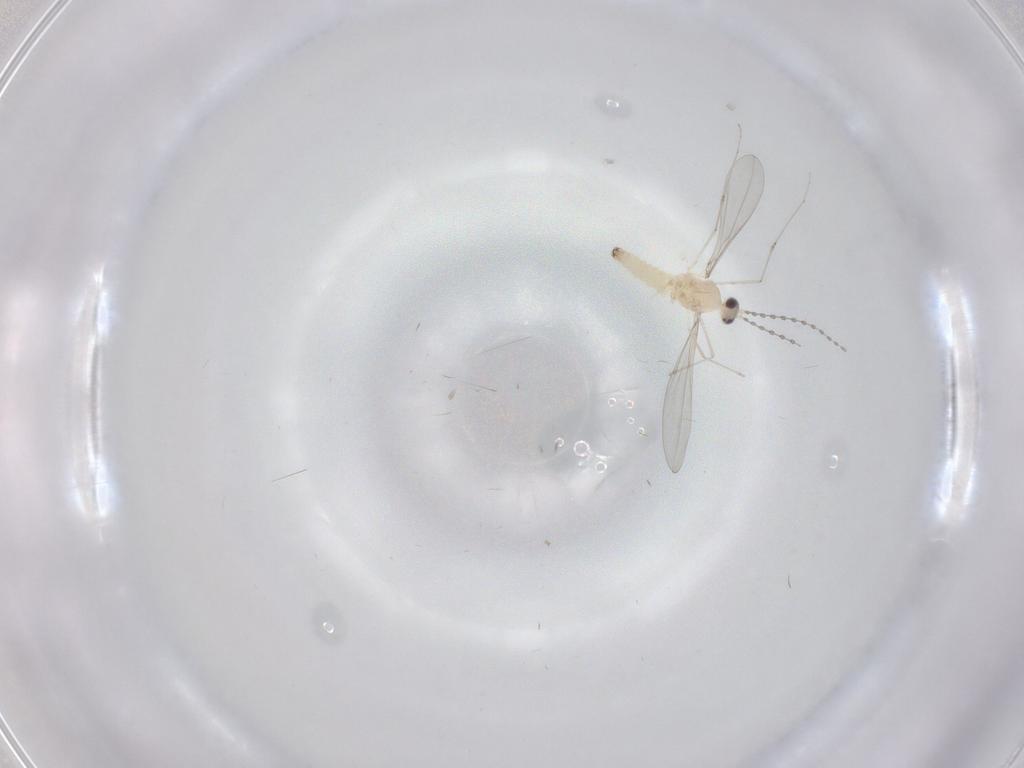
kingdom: Animalia
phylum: Arthropoda
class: Insecta
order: Diptera
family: Cecidomyiidae
